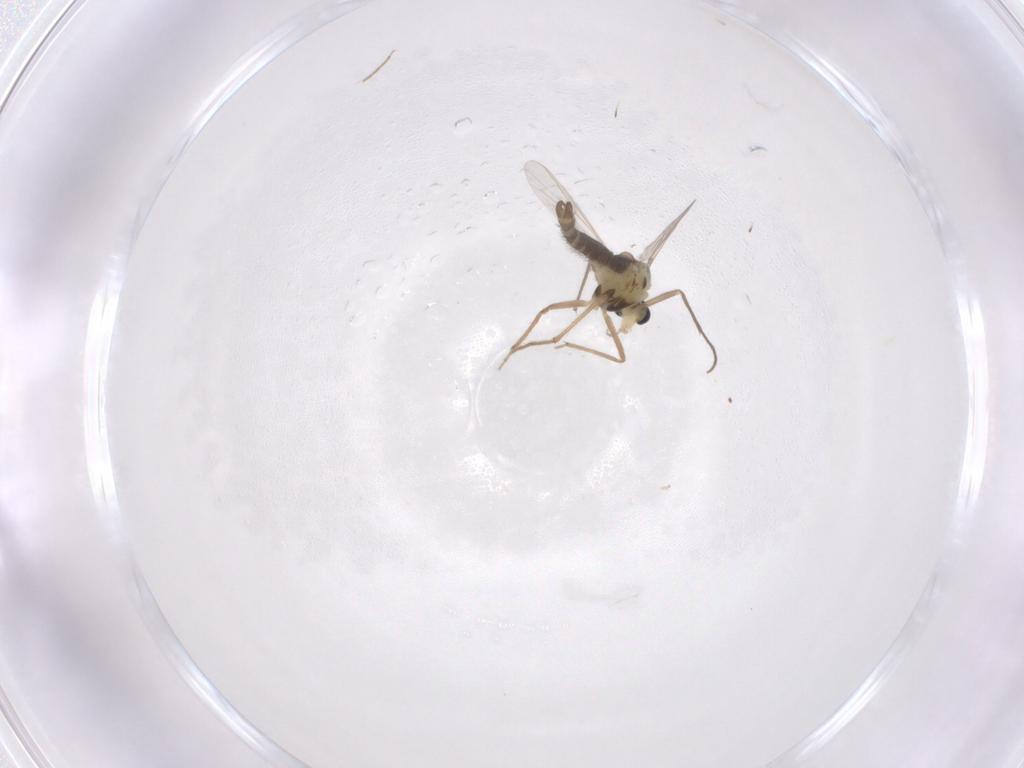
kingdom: Animalia
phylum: Arthropoda
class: Insecta
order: Diptera
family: Chironomidae
